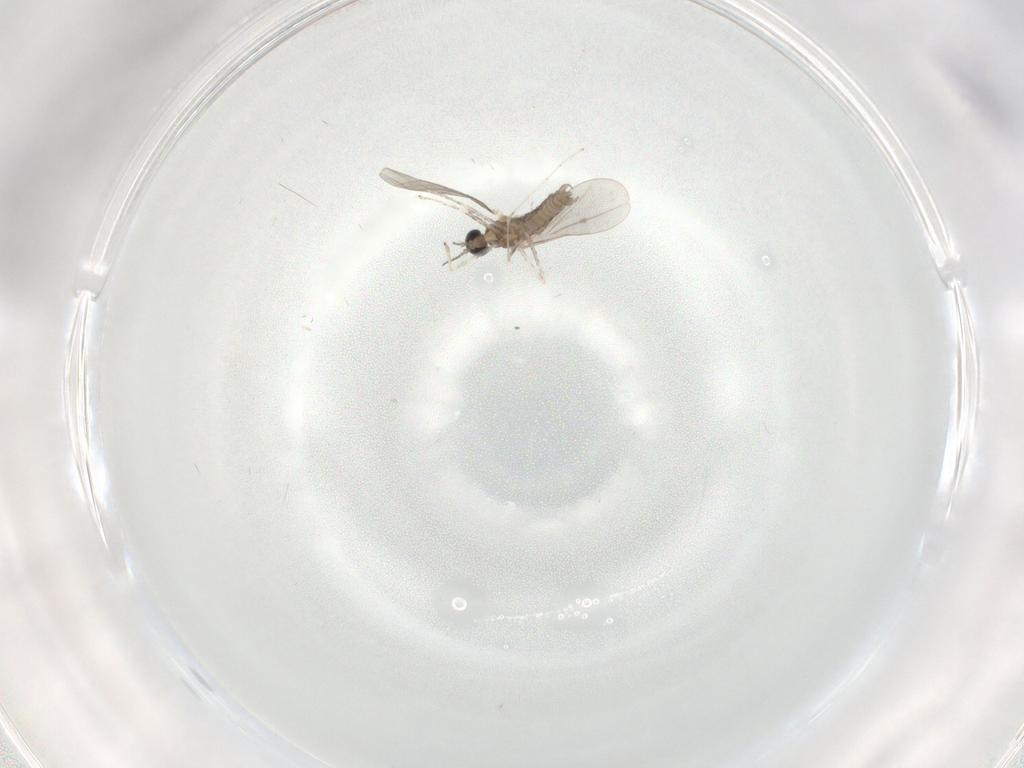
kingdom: Animalia
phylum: Arthropoda
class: Insecta
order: Diptera
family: Cecidomyiidae
